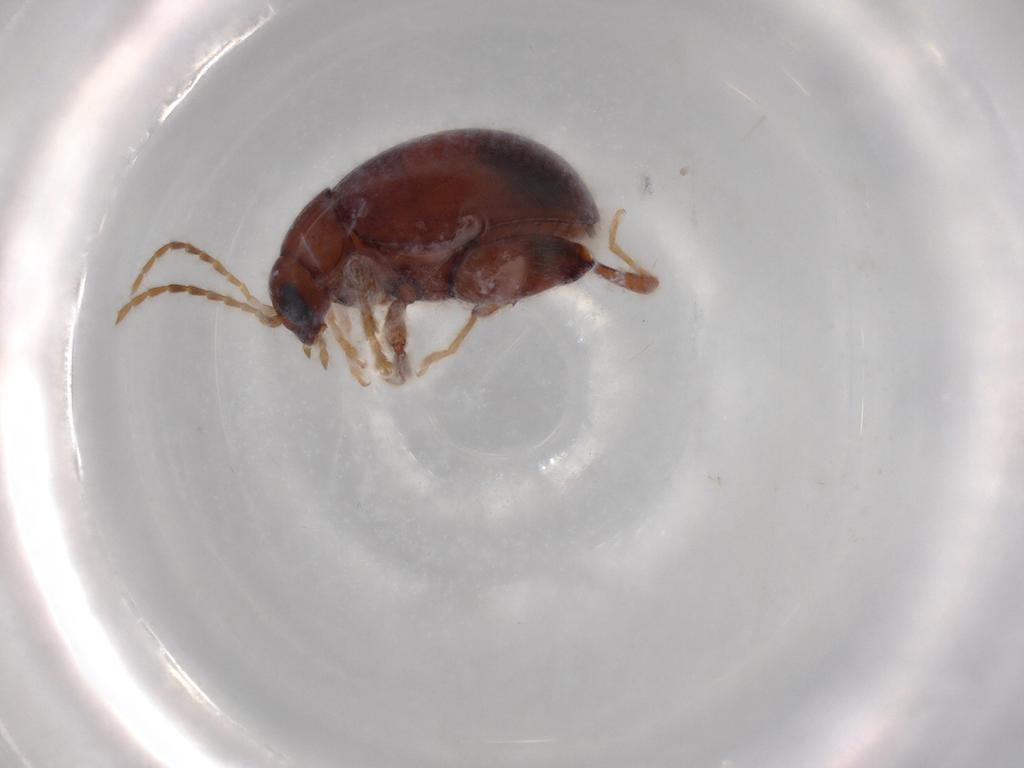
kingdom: Animalia
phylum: Arthropoda
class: Insecta
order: Coleoptera
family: Chrysomelidae
